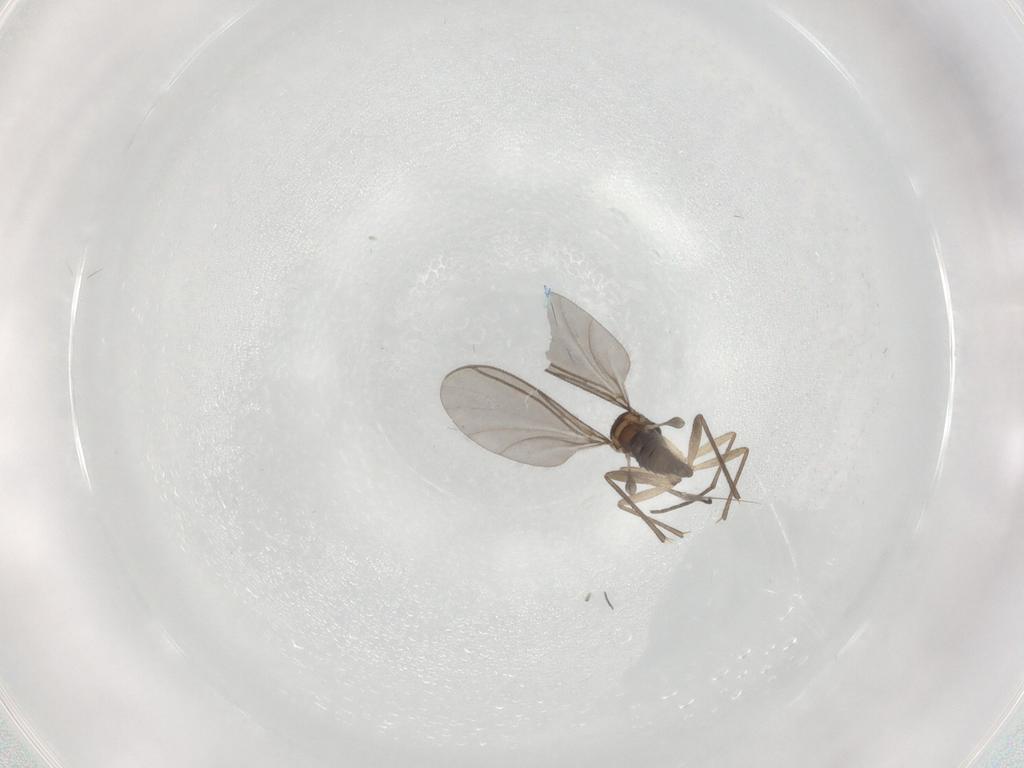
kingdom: Animalia
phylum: Arthropoda
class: Insecta
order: Diptera
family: Sciaridae
